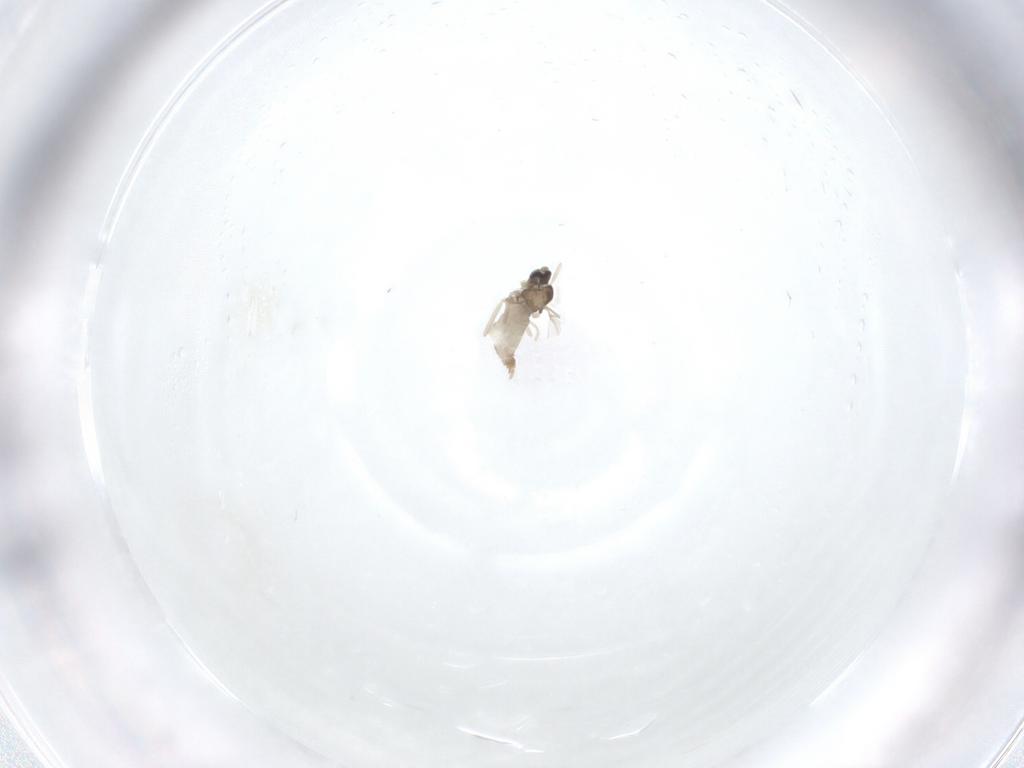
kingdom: Animalia
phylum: Arthropoda
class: Insecta
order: Diptera
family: Cecidomyiidae
